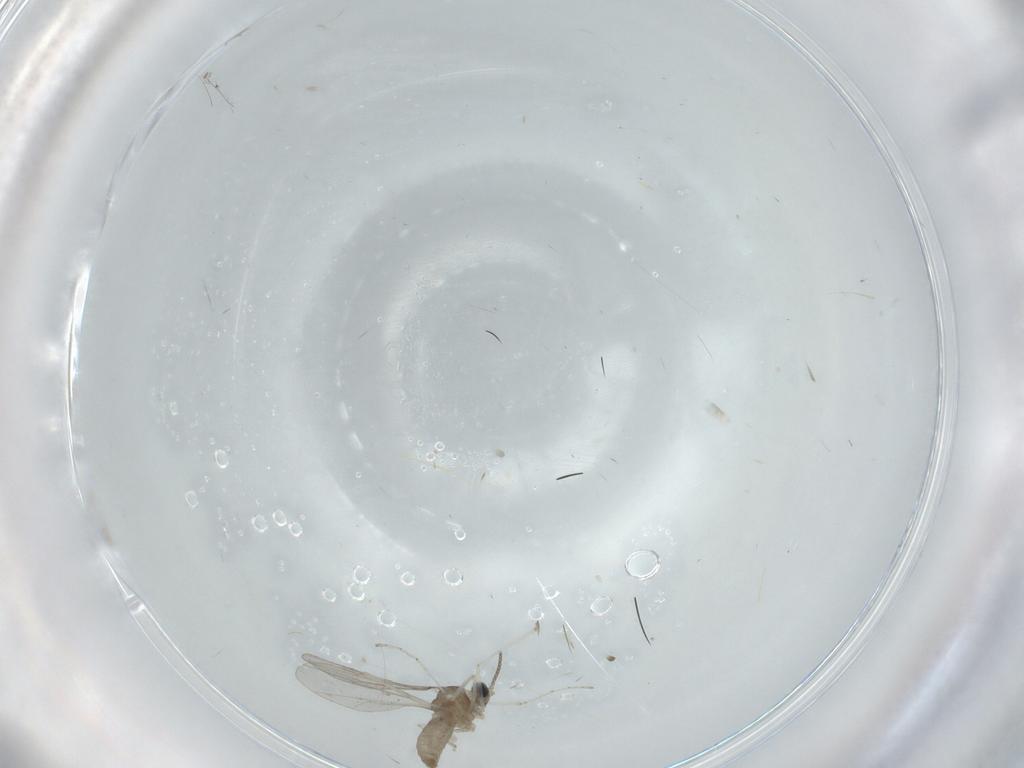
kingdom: Animalia
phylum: Arthropoda
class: Insecta
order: Diptera
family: Cecidomyiidae
